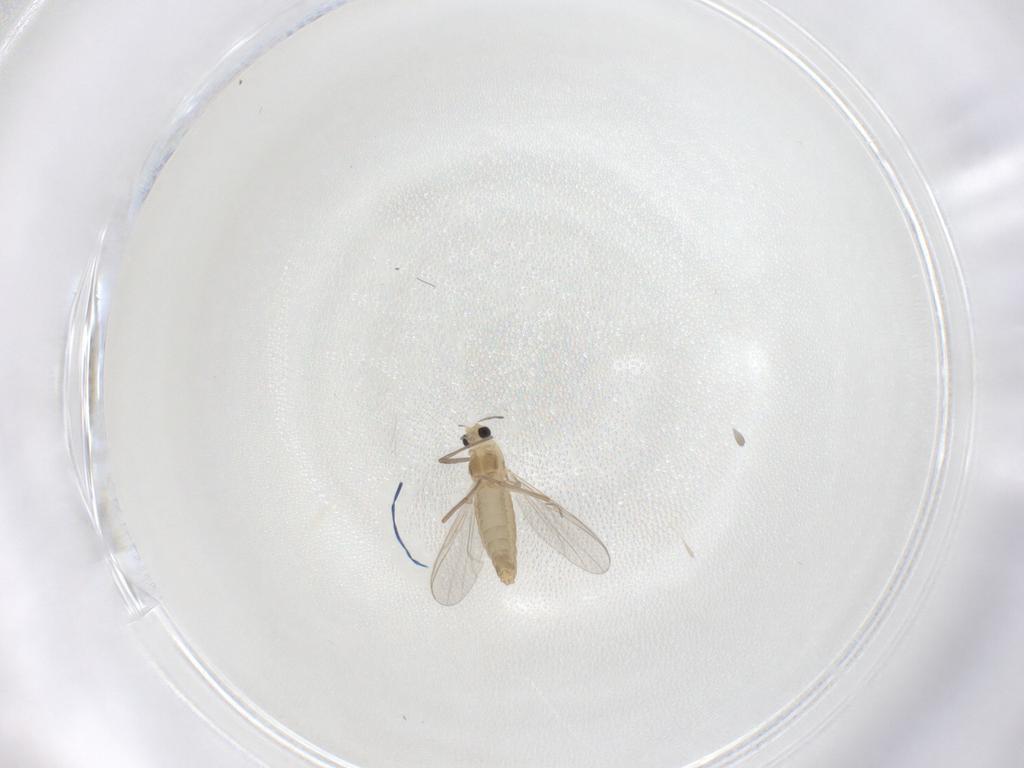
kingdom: Animalia
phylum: Arthropoda
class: Insecta
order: Diptera
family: Chironomidae
